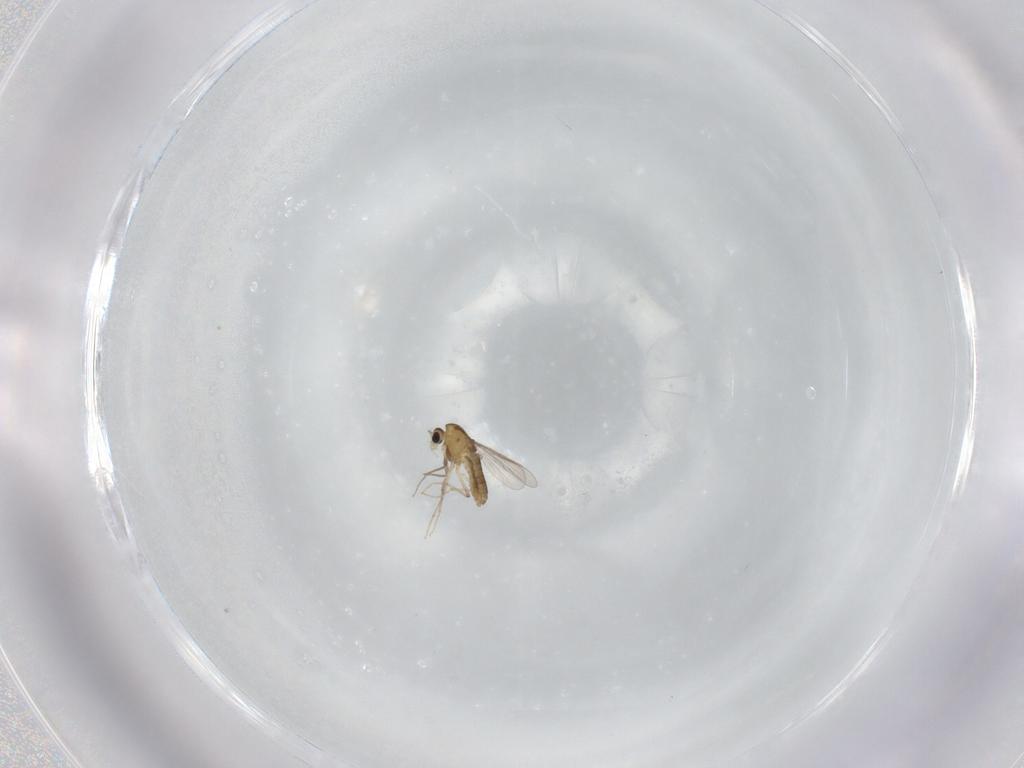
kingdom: Animalia
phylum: Arthropoda
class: Insecta
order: Diptera
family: Chironomidae
